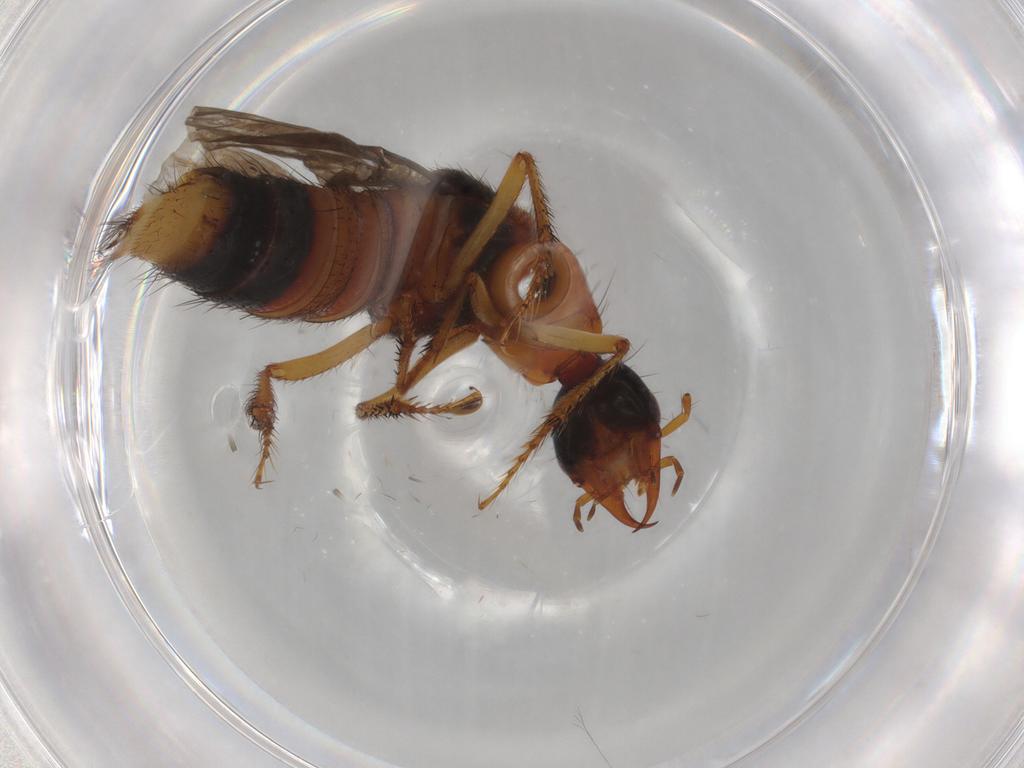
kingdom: Animalia
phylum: Arthropoda
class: Insecta
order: Coleoptera
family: Staphylinidae
